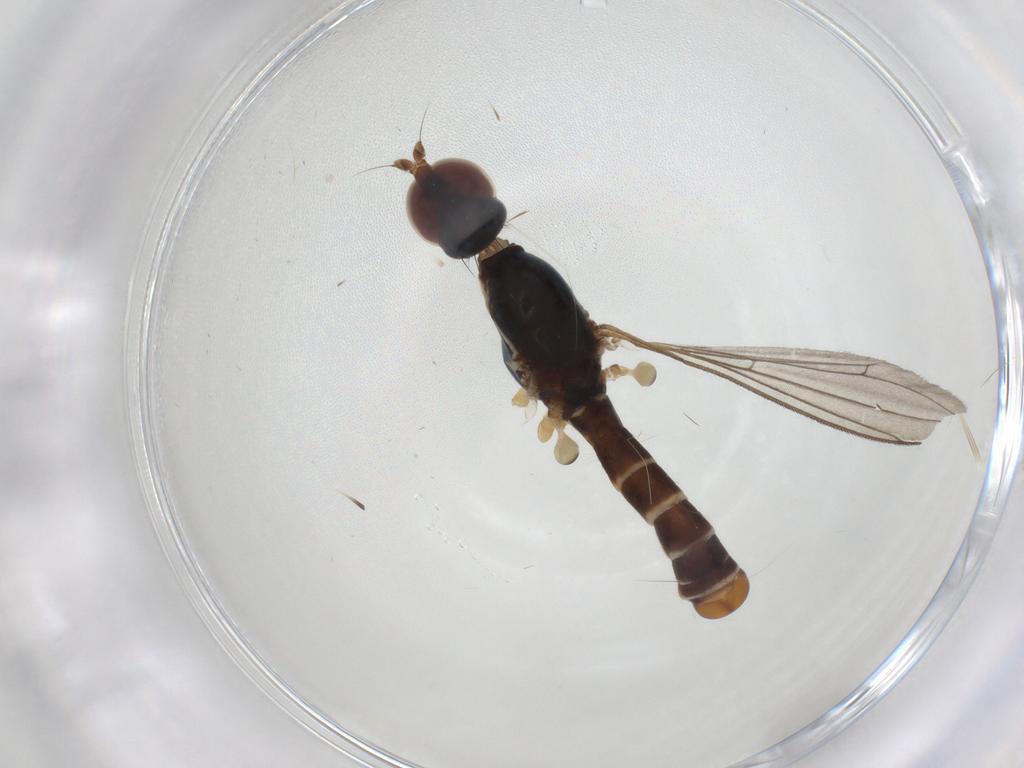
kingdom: Animalia
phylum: Arthropoda
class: Insecta
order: Diptera
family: Micropezidae
